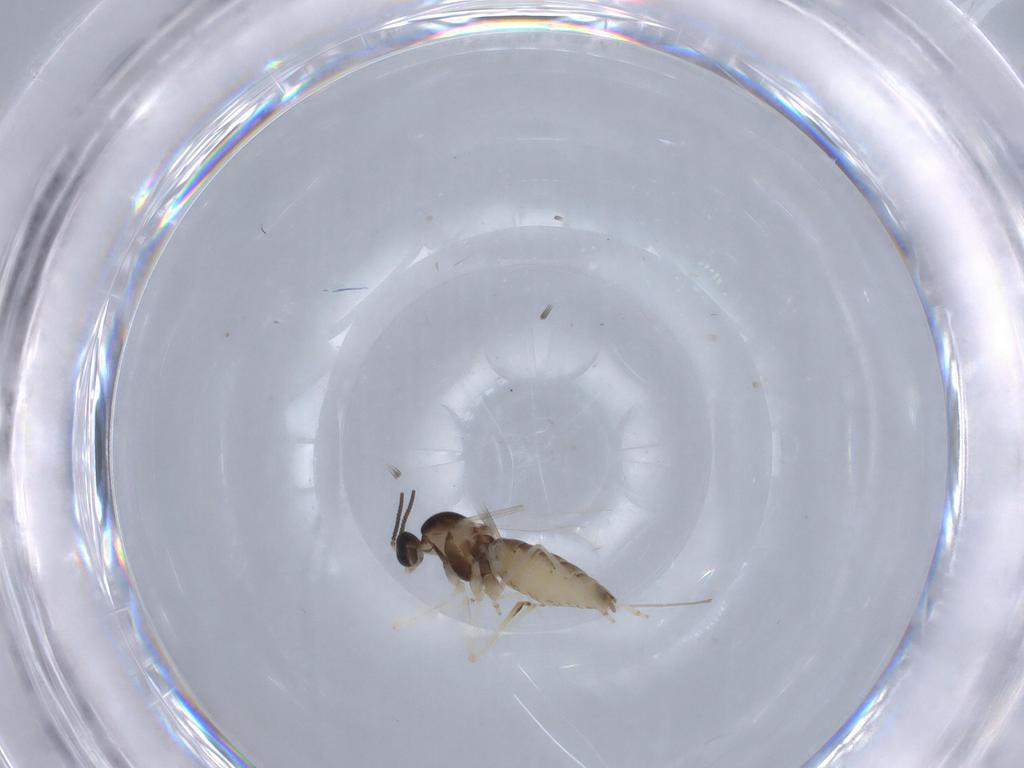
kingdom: Animalia
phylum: Arthropoda
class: Insecta
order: Diptera
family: Cecidomyiidae
